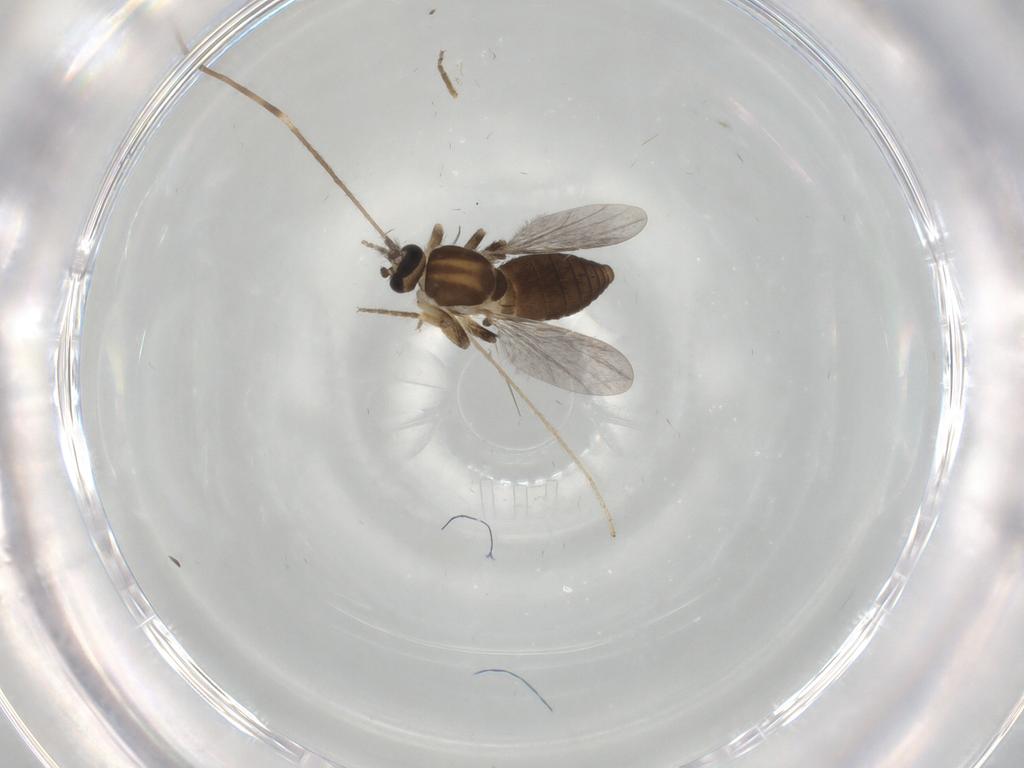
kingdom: Animalia
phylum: Arthropoda
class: Insecta
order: Diptera
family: Ceratopogonidae
